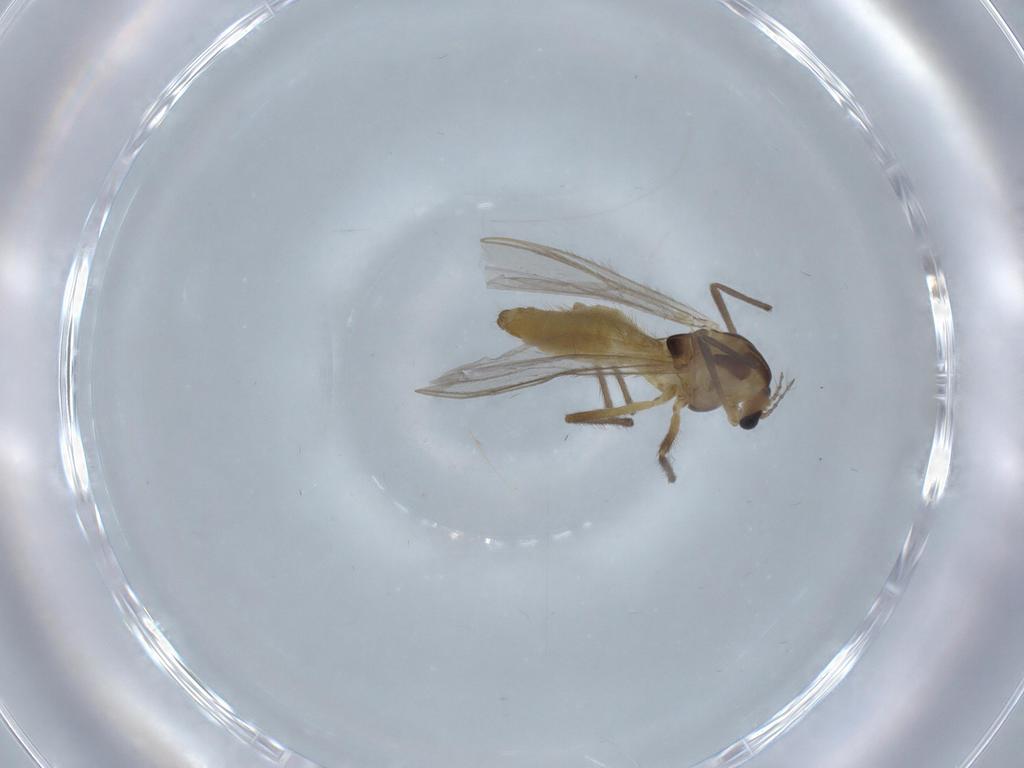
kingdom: Animalia
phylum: Arthropoda
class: Insecta
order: Diptera
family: Chironomidae
